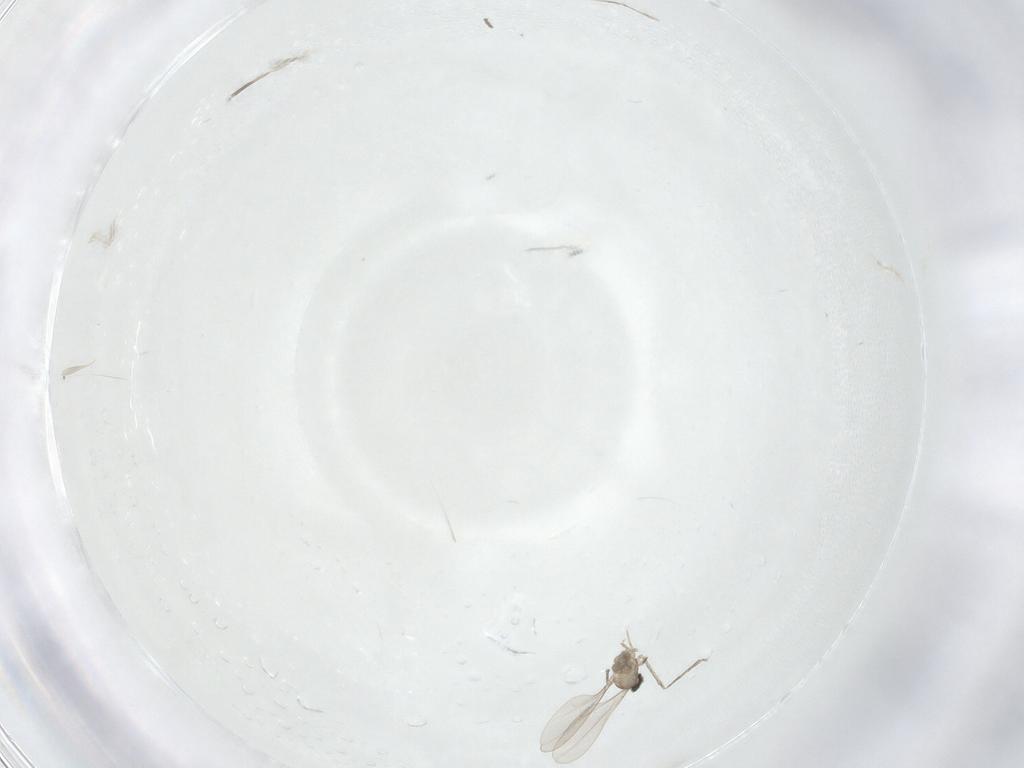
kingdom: Animalia
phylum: Arthropoda
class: Insecta
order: Diptera
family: Cecidomyiidae
